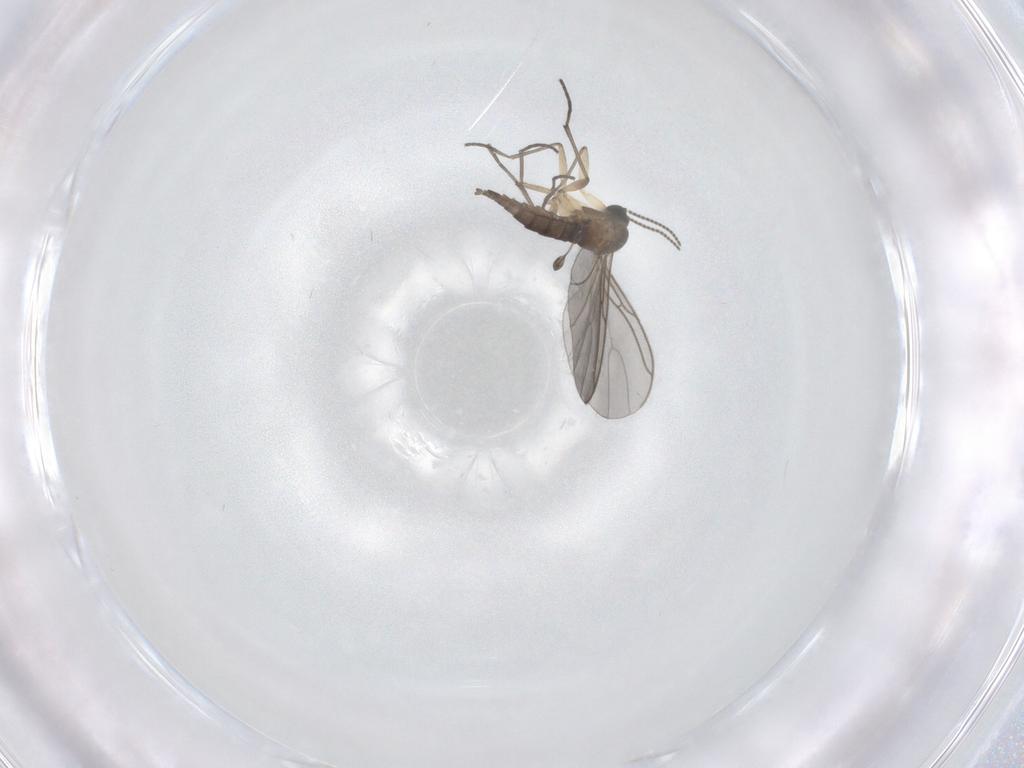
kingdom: Animalia
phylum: Arthropoda
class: Insecta
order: Diptera
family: Sciaridae
